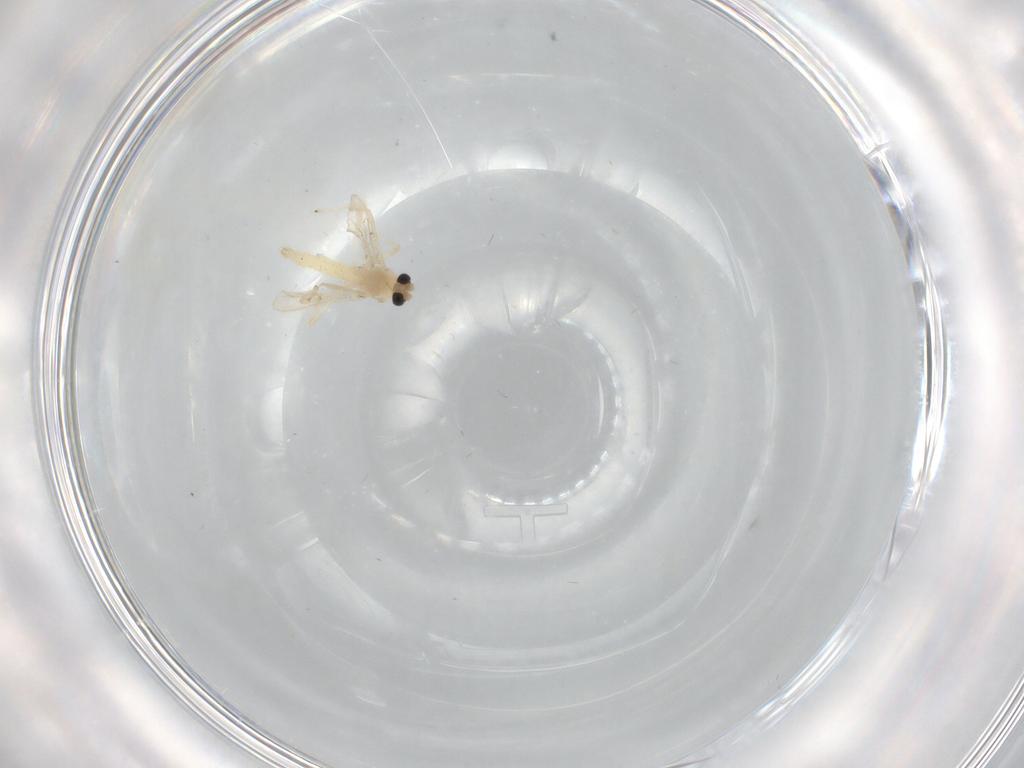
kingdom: Animalia
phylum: Arthropoda
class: Insecta
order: Diptera
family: Chironomidae
